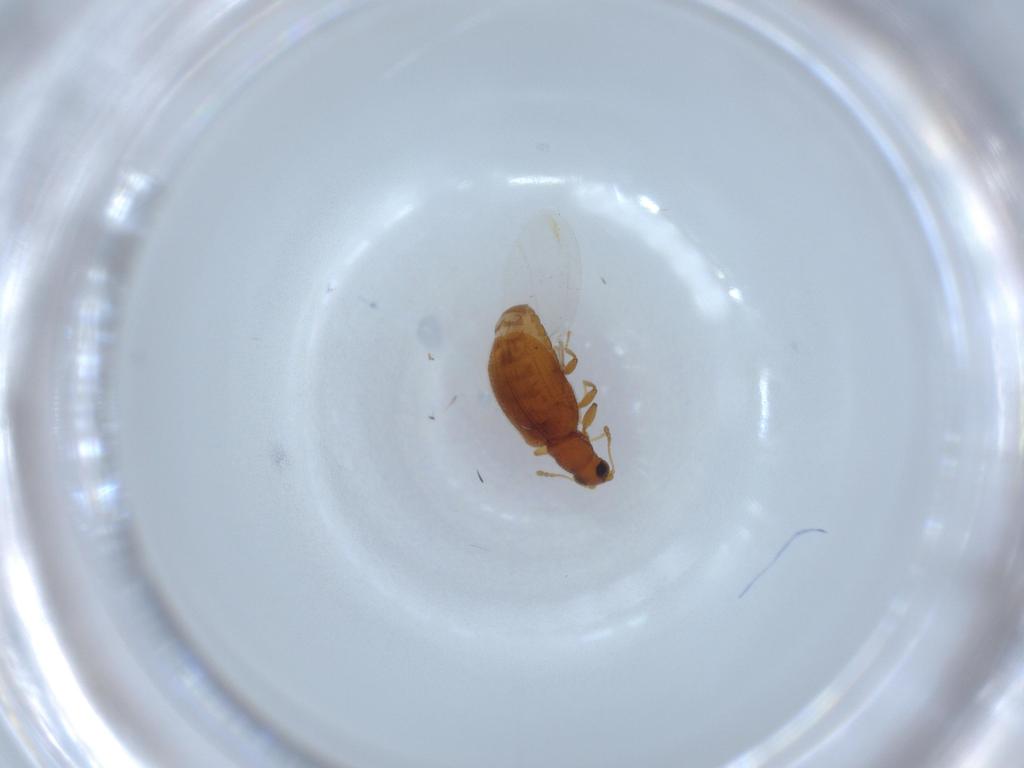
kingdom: Animalia
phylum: Arthropoda
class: Insecta
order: Coleoptera
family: Latridiidae
